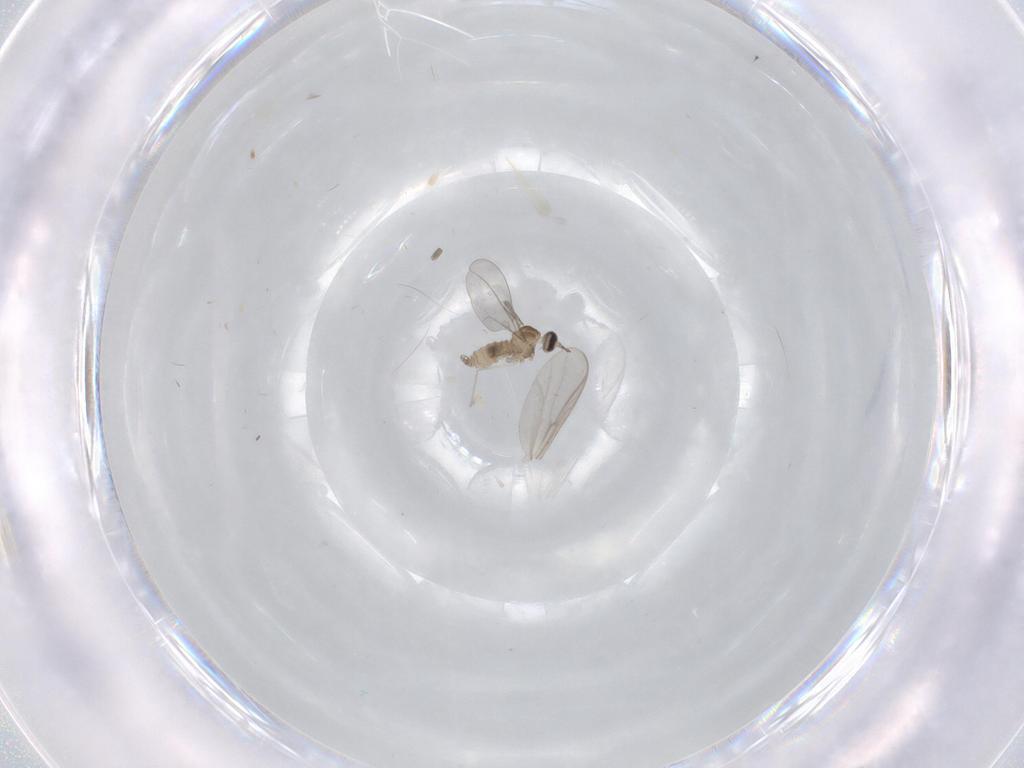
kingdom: Animalia
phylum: Arthropoda
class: Insecta
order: Diptera
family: Cecidomyiidae
